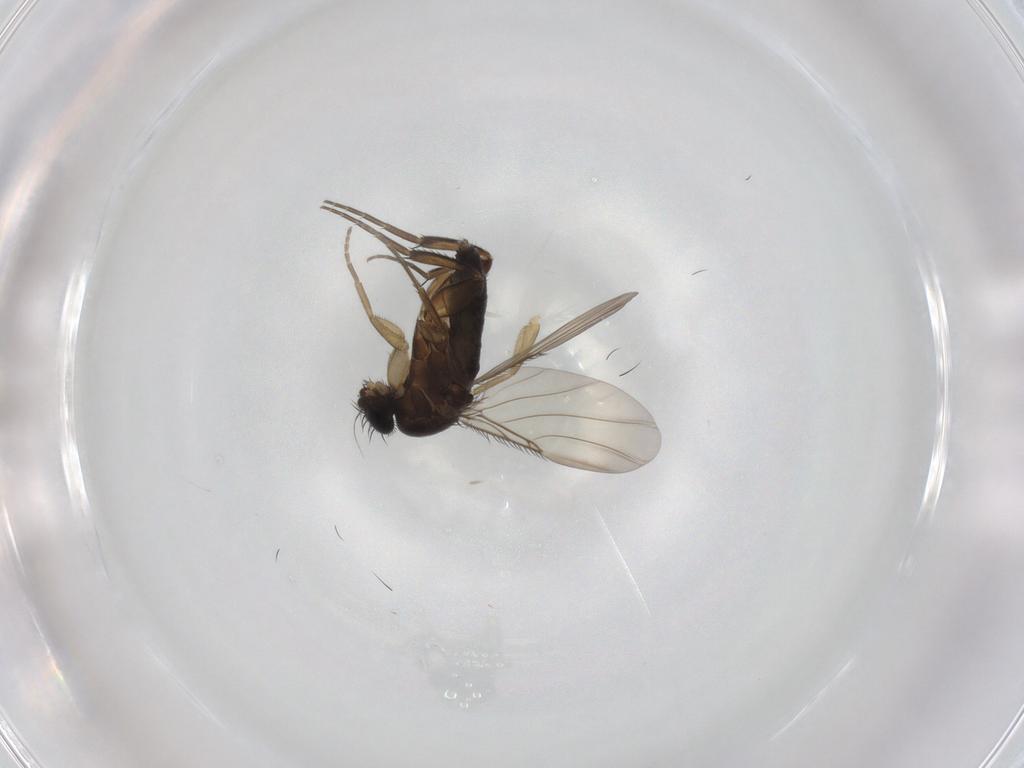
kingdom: Animalia
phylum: Arthropoda
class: Insecta
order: Diptera
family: Phoridae
